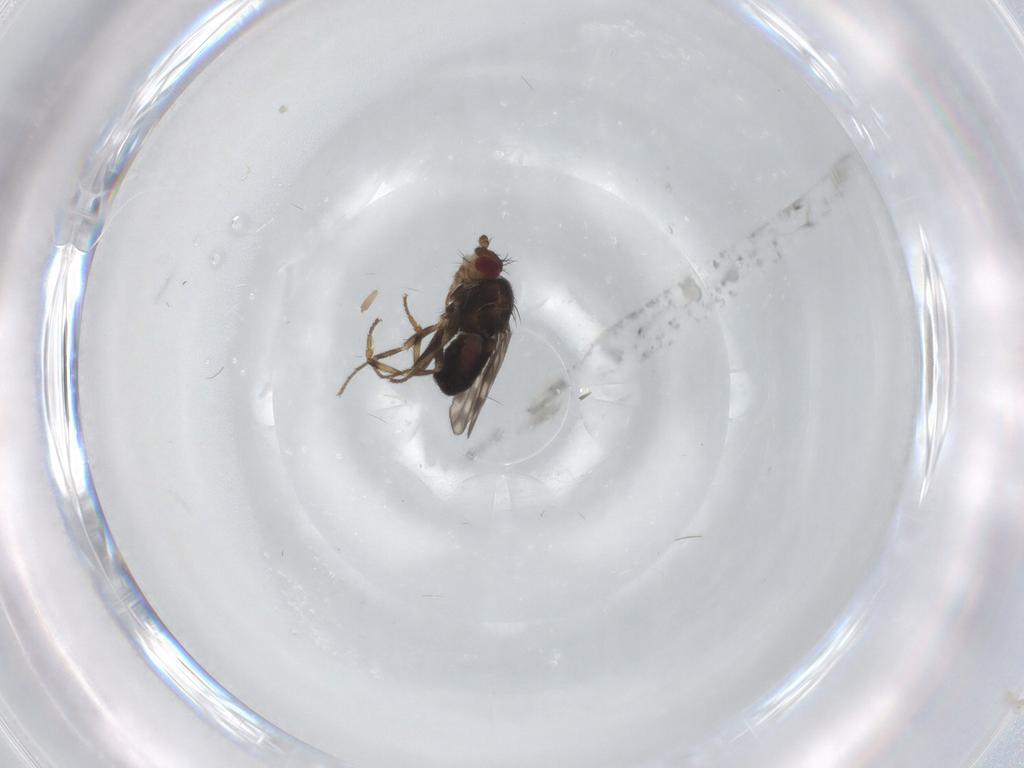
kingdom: Animalia
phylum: Arthropoda
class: Insecta
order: Diptera
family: Sphaeroceridae
